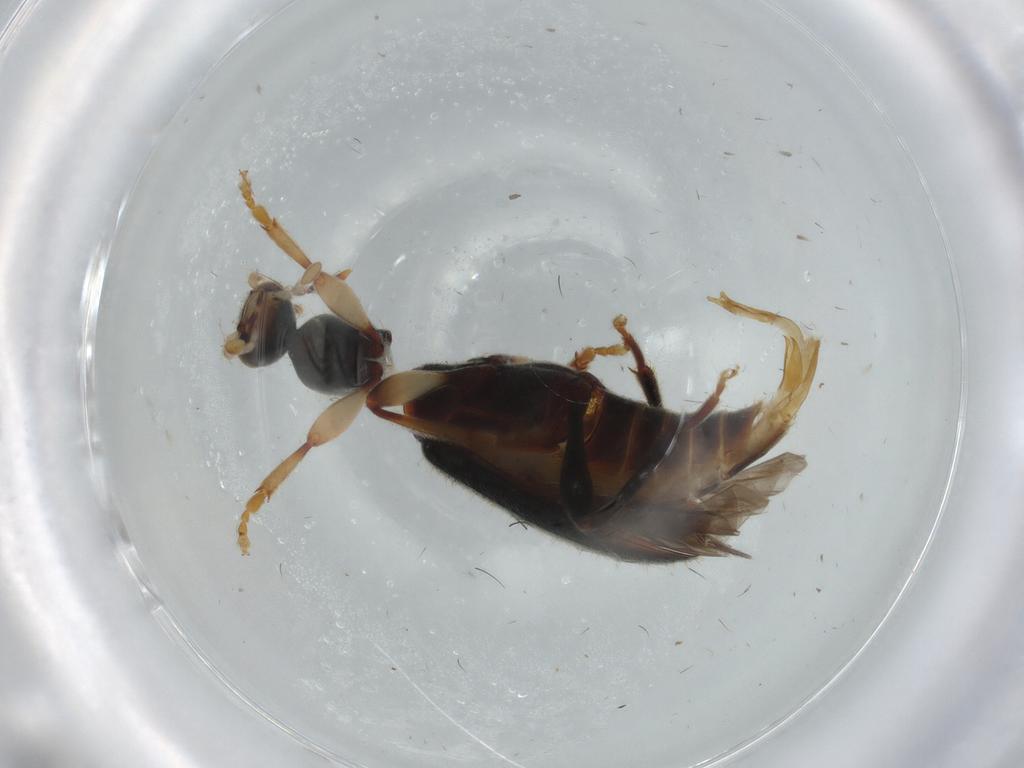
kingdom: Animalia
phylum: Arthropoda
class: Insecta
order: Coleoptera
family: Anthicidae
